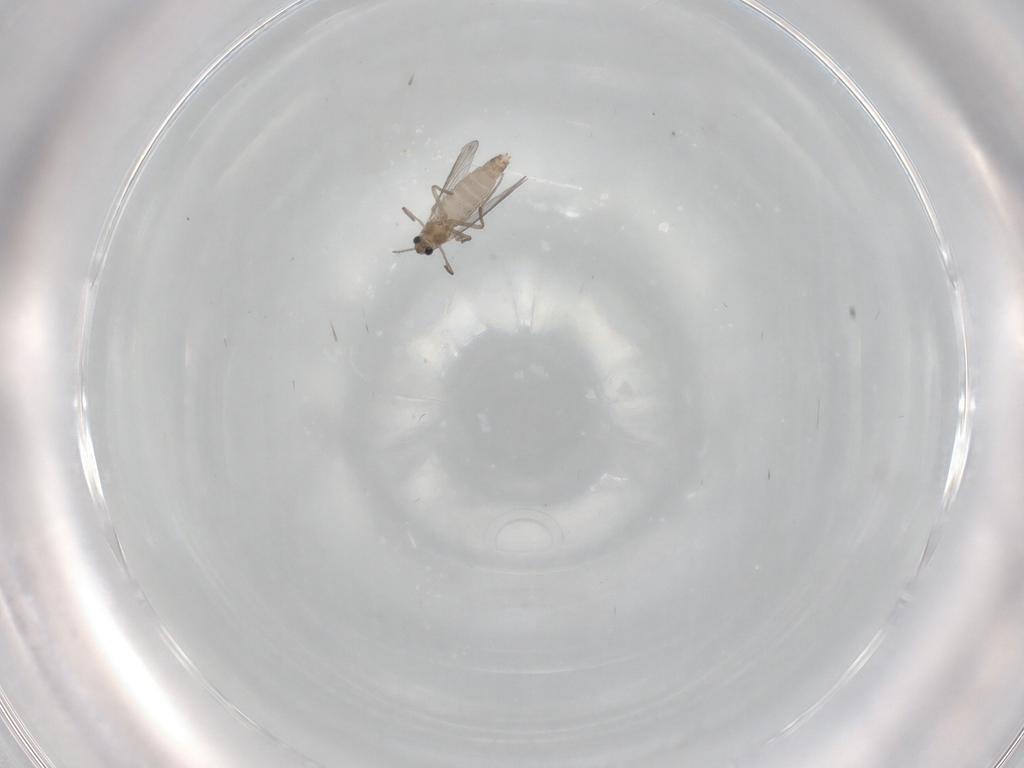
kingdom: Animalia
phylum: Arthropoda
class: Insecta
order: Diptera
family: Chironomidae
